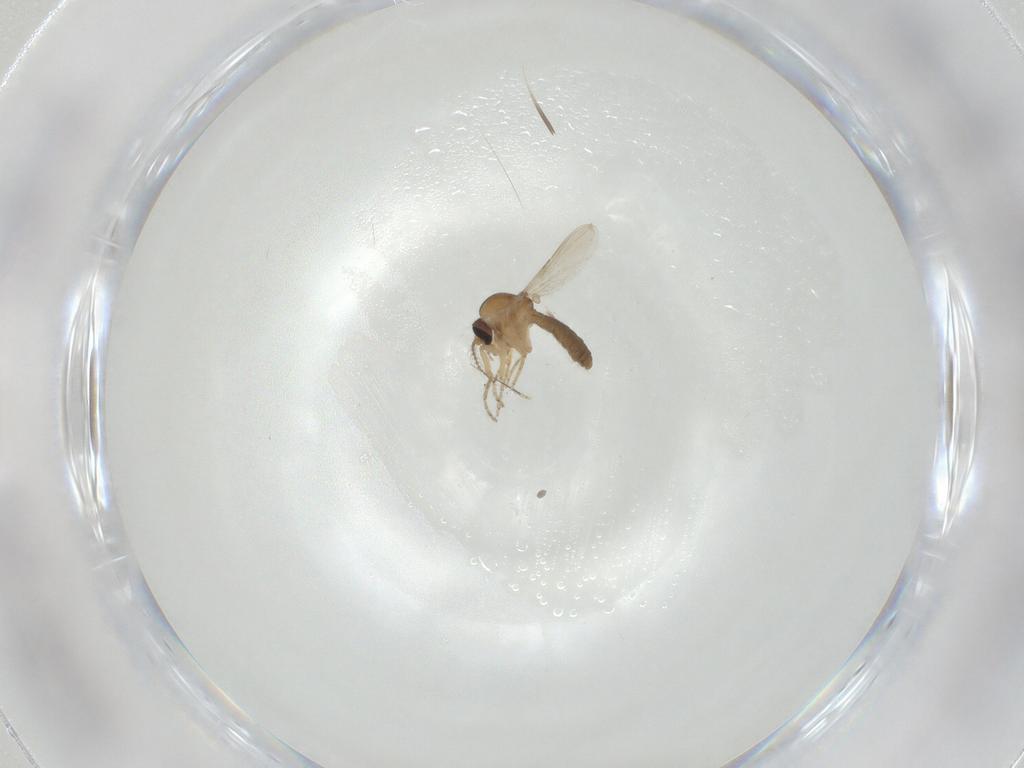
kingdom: Animalia
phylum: Arthropoda
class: Insecta
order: Diptera
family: Ceratopogonidae
